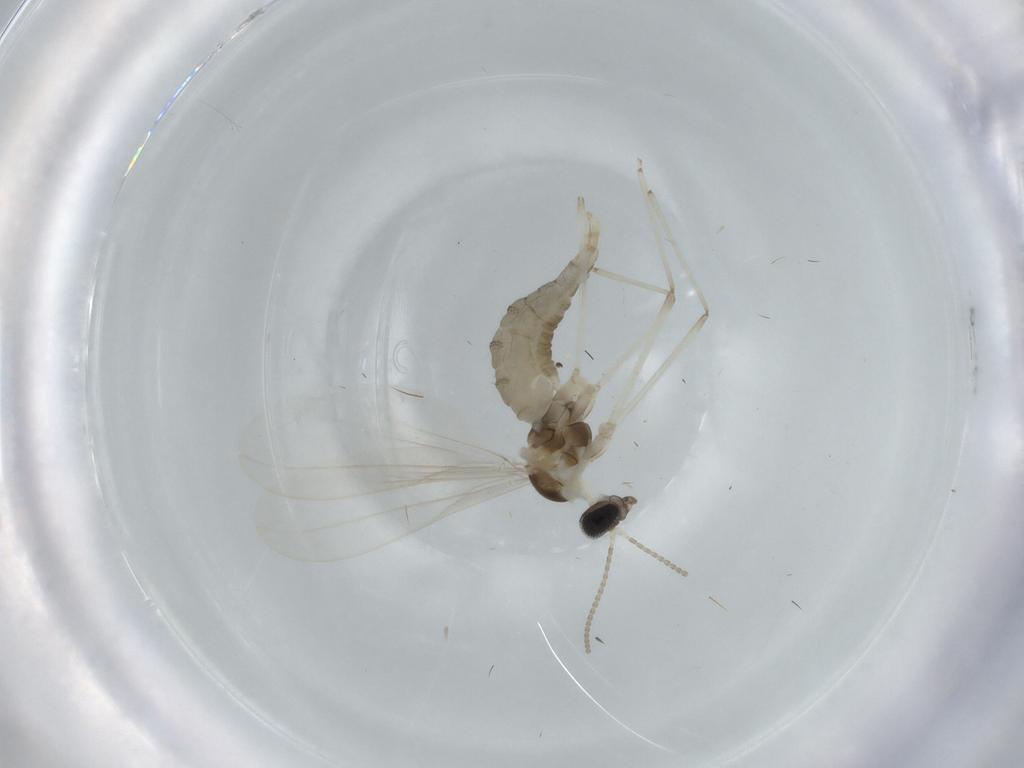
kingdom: Animalia
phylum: Arthropoda
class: Insecta
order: Diptera
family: Cecidomyiidae
